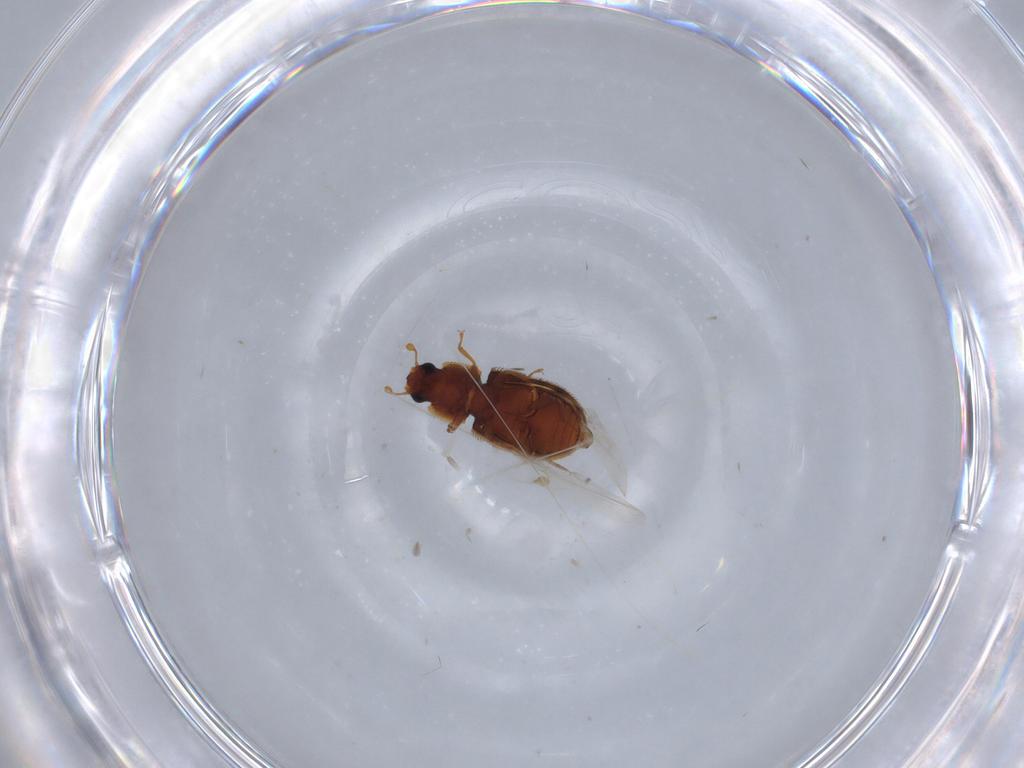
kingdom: Animalia
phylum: Arthropoda
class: Insecta
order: Coleoptera
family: Zopheridae
